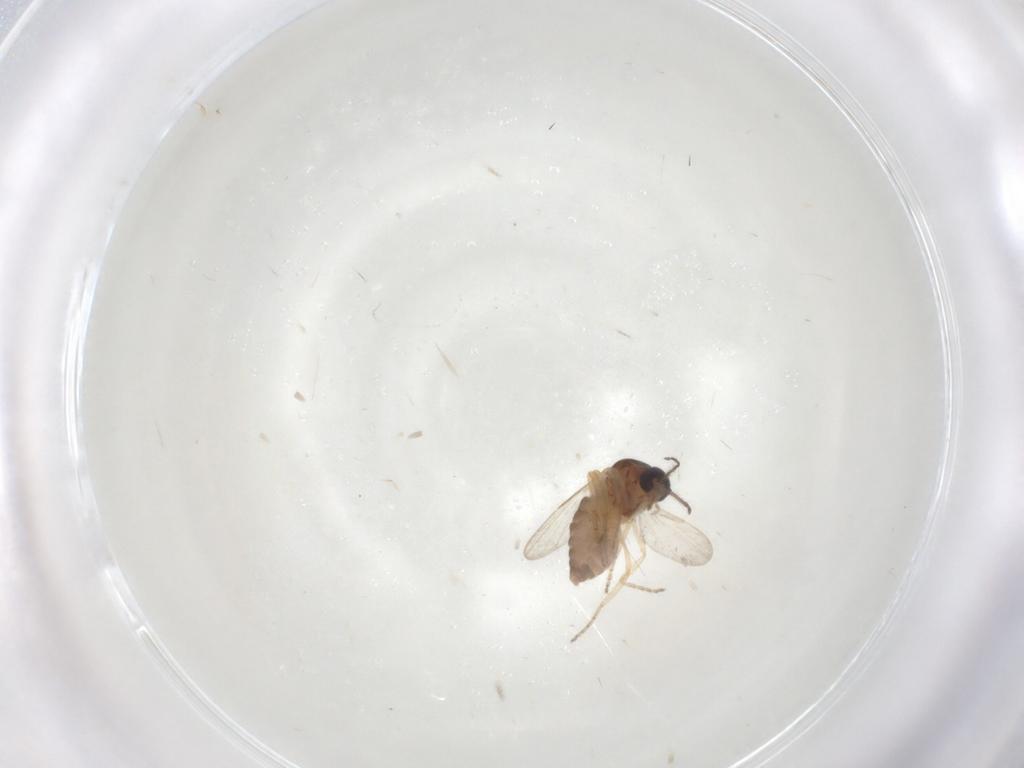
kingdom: Animalia
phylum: Arthropoda
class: Insecta
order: Diptera
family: Ceratopogonidae
